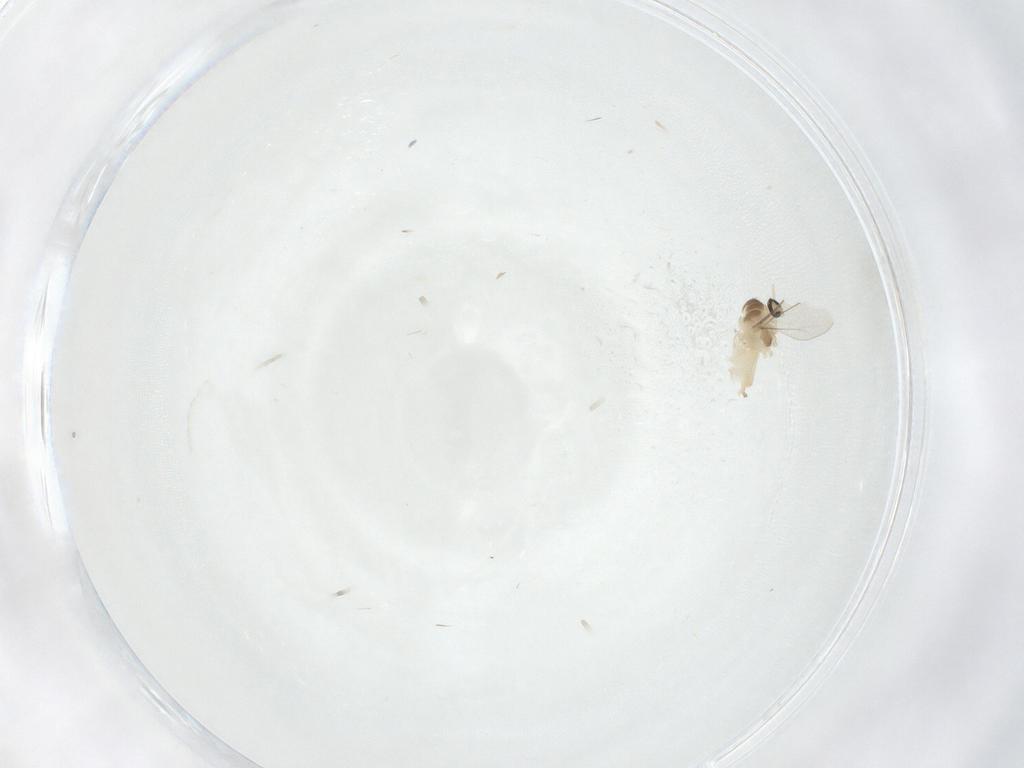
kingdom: Animalia
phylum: Arthropoda
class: Insecta
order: Diptera
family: Cecidomyiidae
